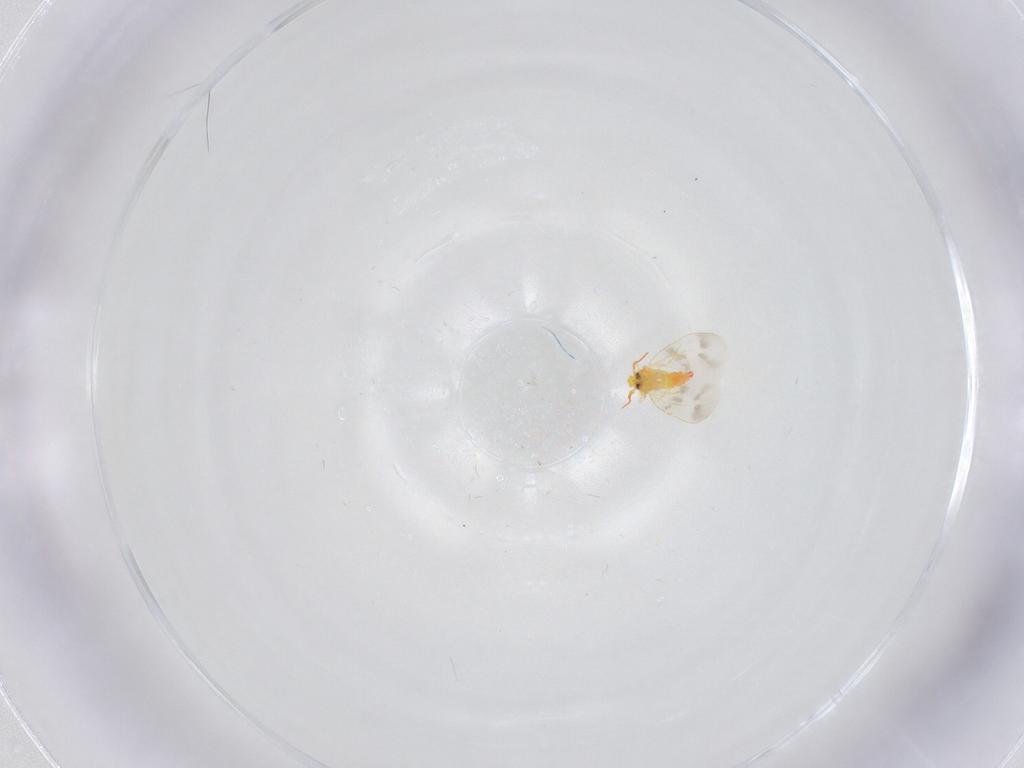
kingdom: Animalia
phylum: Arthropoda
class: Insecta
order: Hemiptera
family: Aleyrodidae
